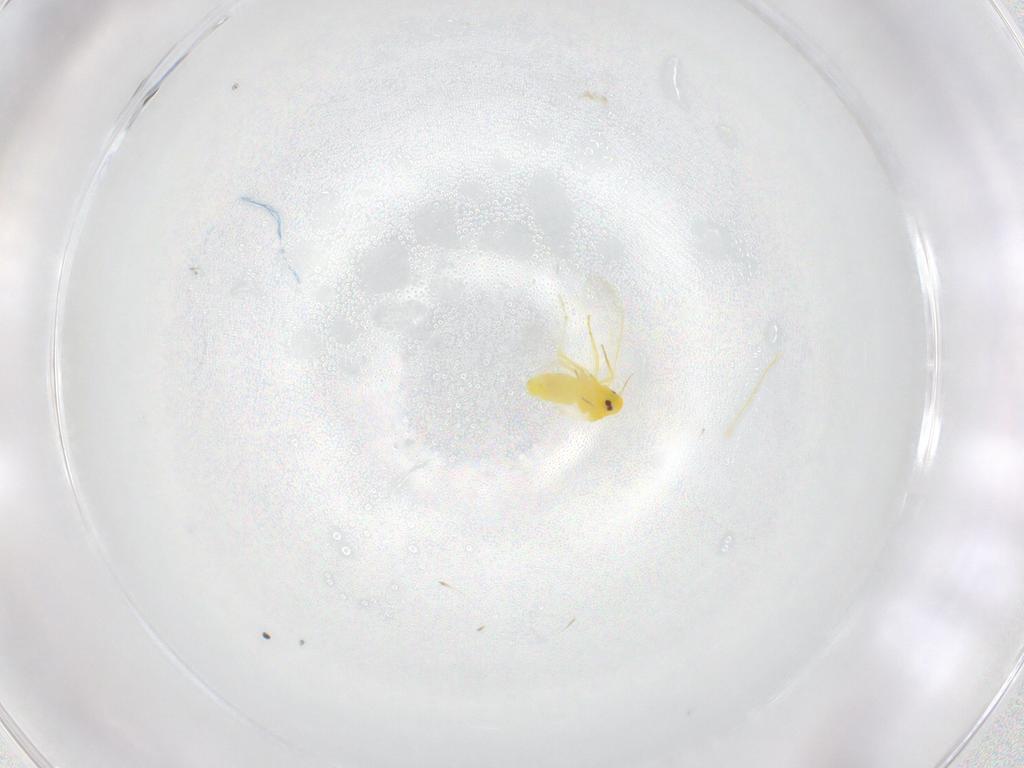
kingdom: Animalia
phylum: Arthropoda
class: Insecta
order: Hemiptera
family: Aleyrodidae
